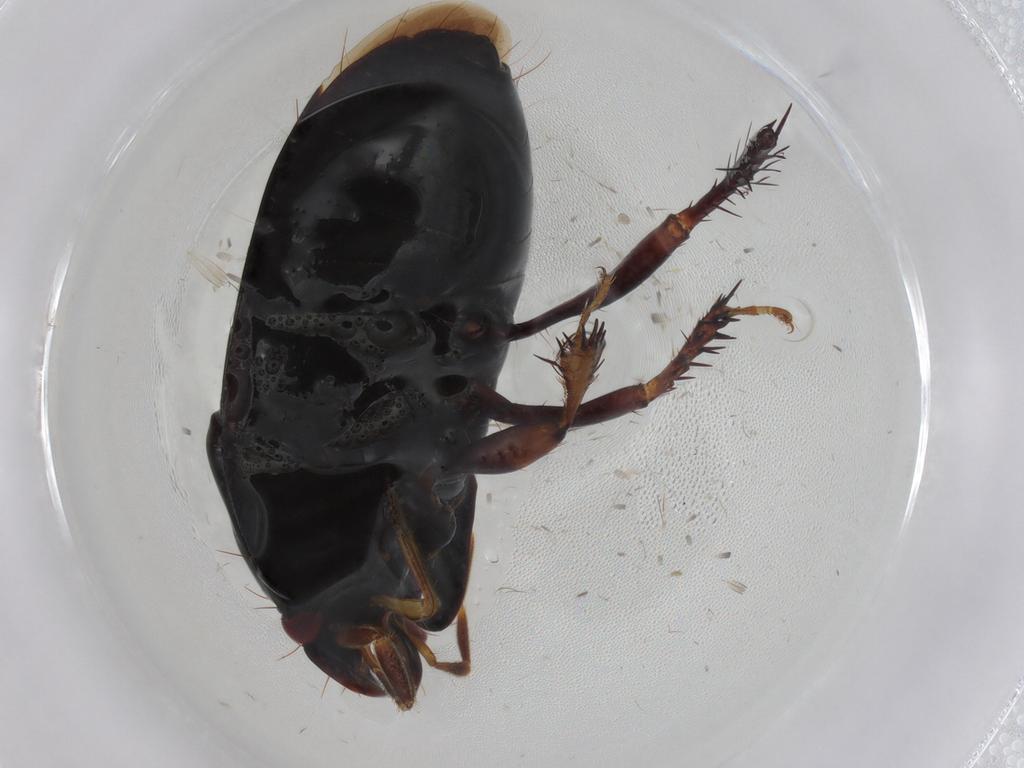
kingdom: Animalia
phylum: Arthropoda
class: Insecta
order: Hemiptera
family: Cydnidae
